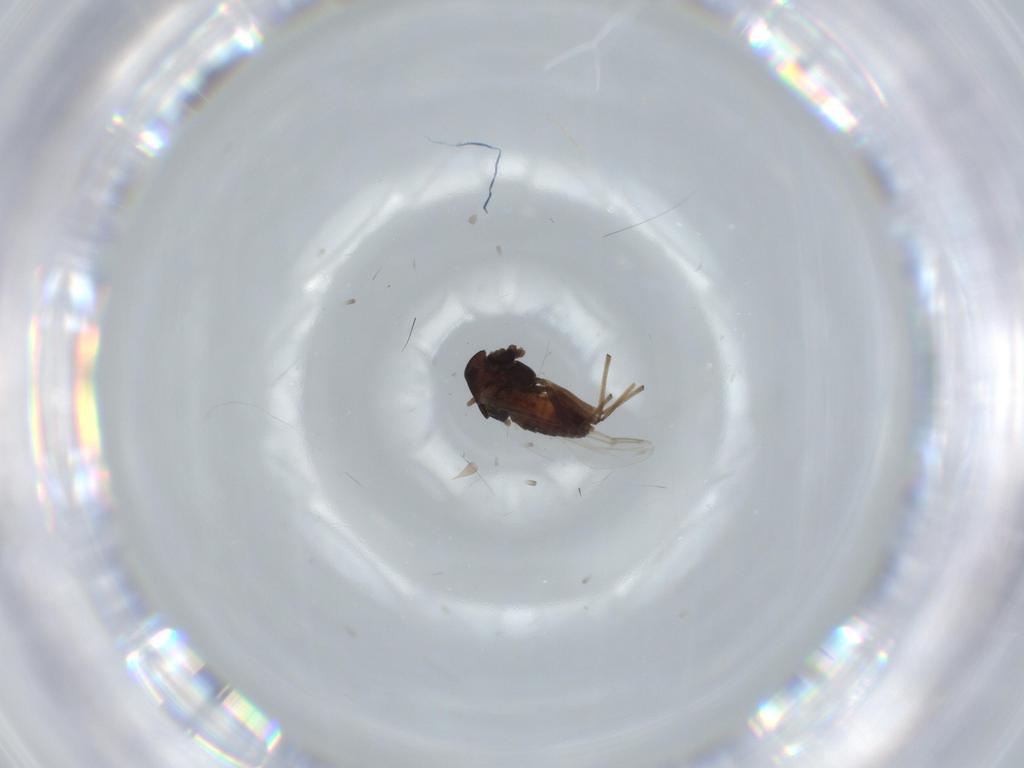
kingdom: Animalia
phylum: Arthropoda
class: Insecta
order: Diptera
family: Chironomidae
